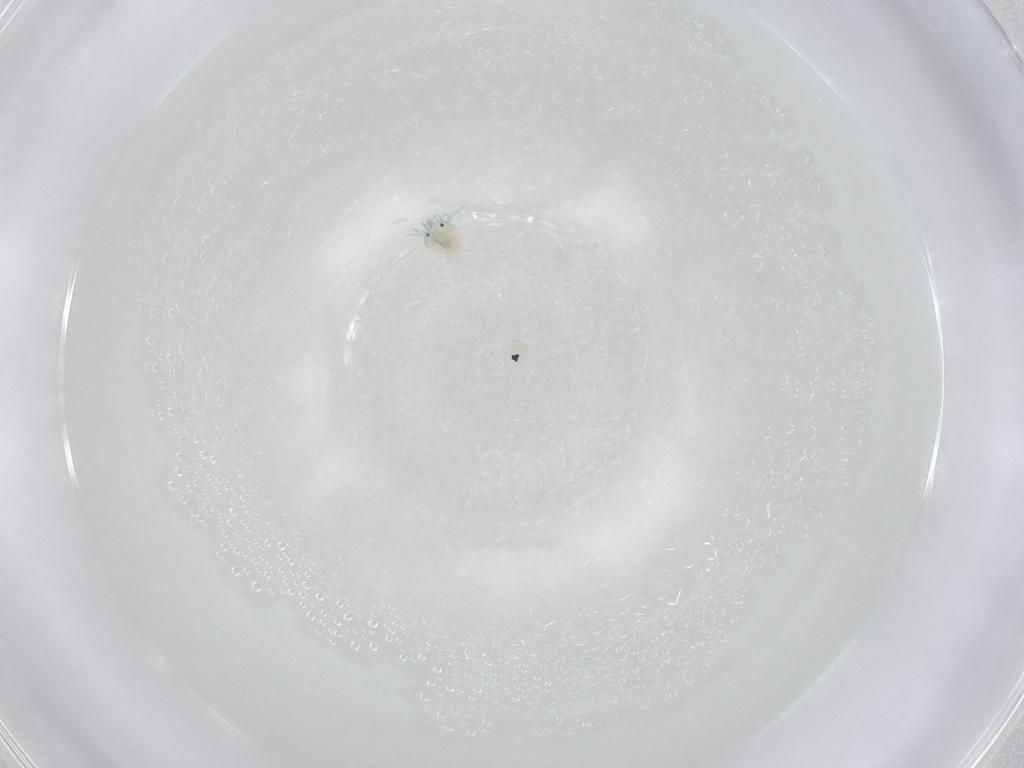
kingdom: Animalia
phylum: Arthropoda
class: Arachnida
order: Trombidiformes
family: Arrenuridae
